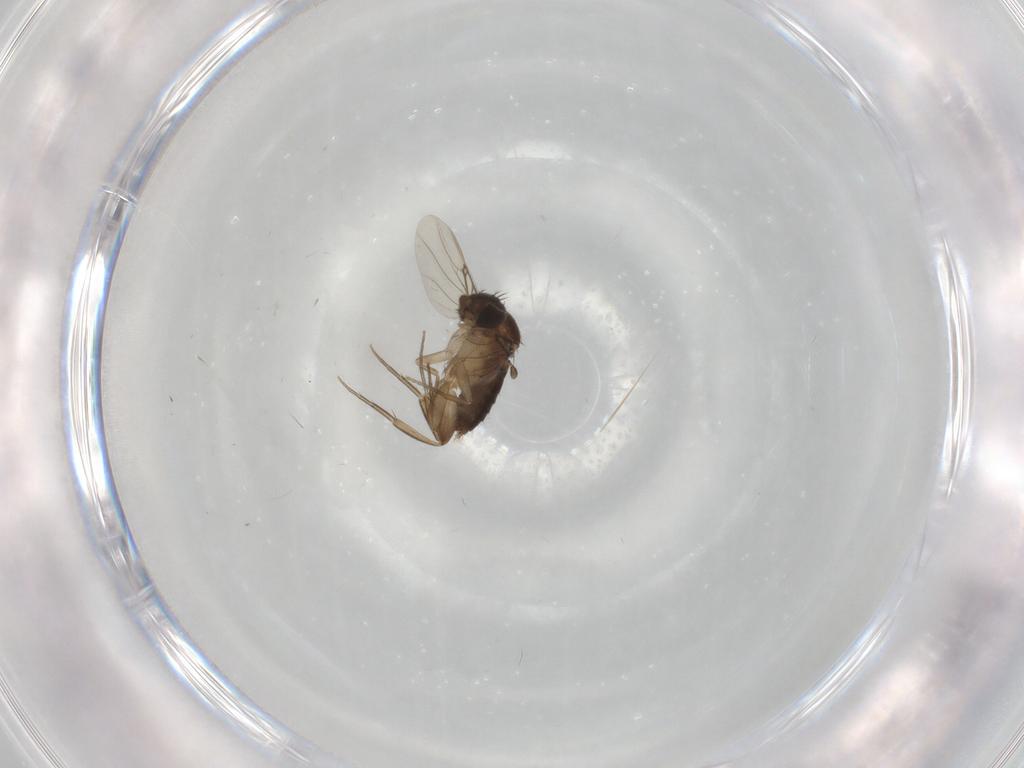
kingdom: Animalia
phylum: Arthropoda
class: Insecta
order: Diptera
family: Phoridae
